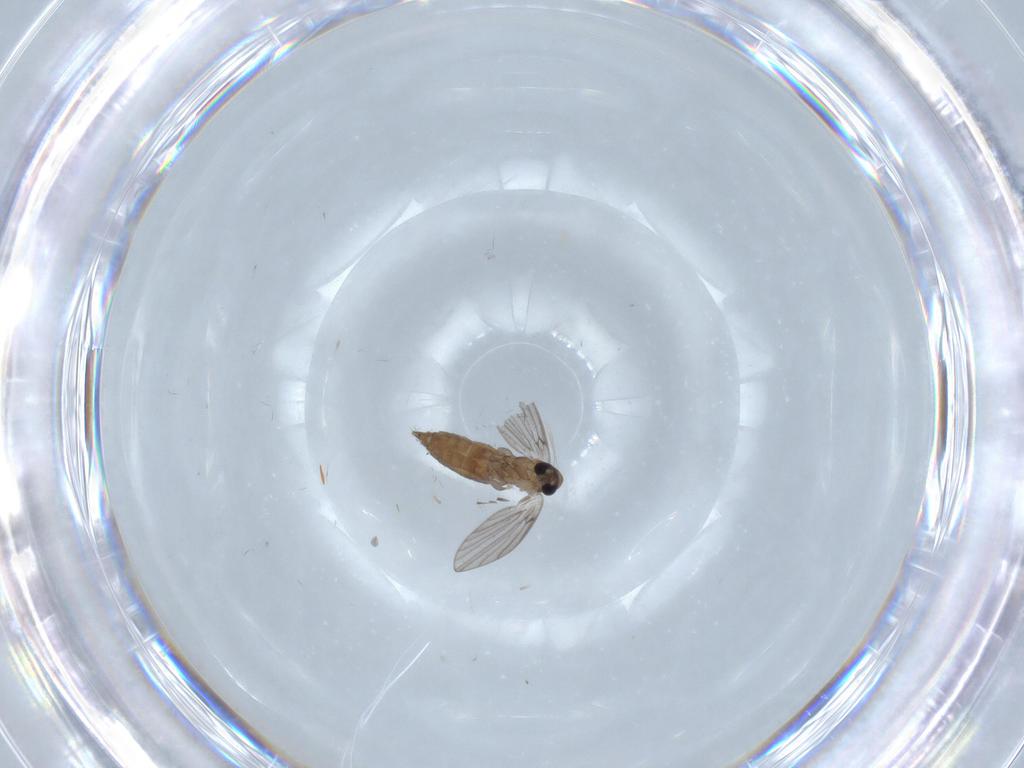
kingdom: Animalia
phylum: Arthropoda
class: Insecta
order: Diptera
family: Psychodidae
